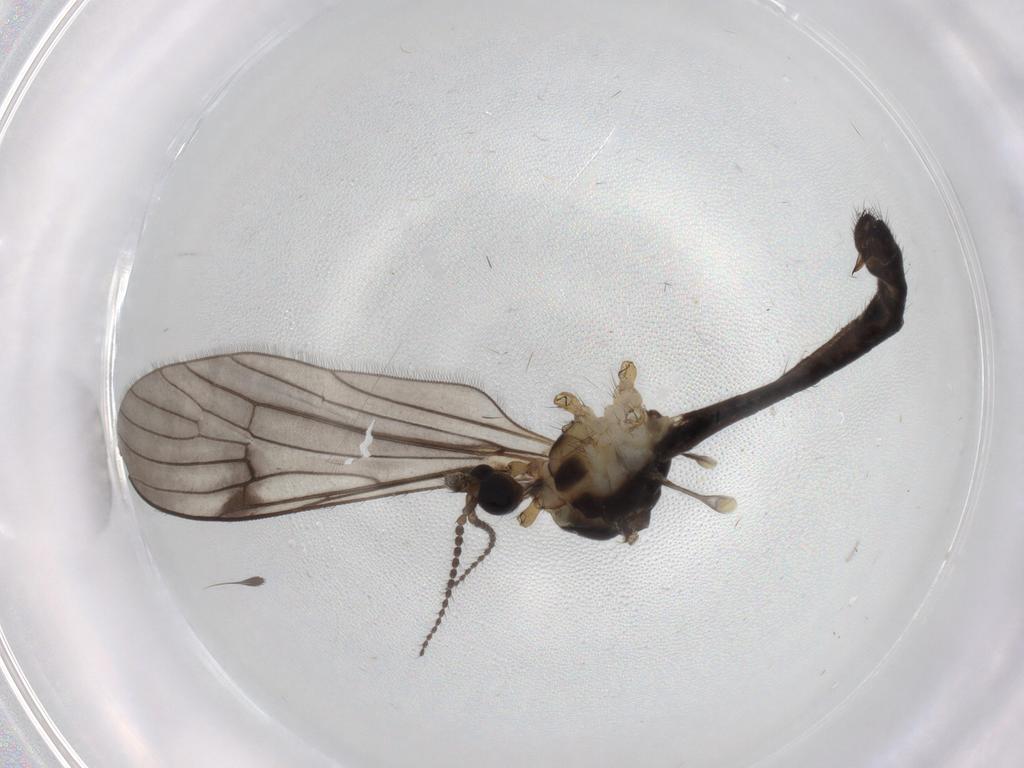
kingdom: Animalia
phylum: Arthropoda
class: Insecta
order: Diptera
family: Limoniidae
